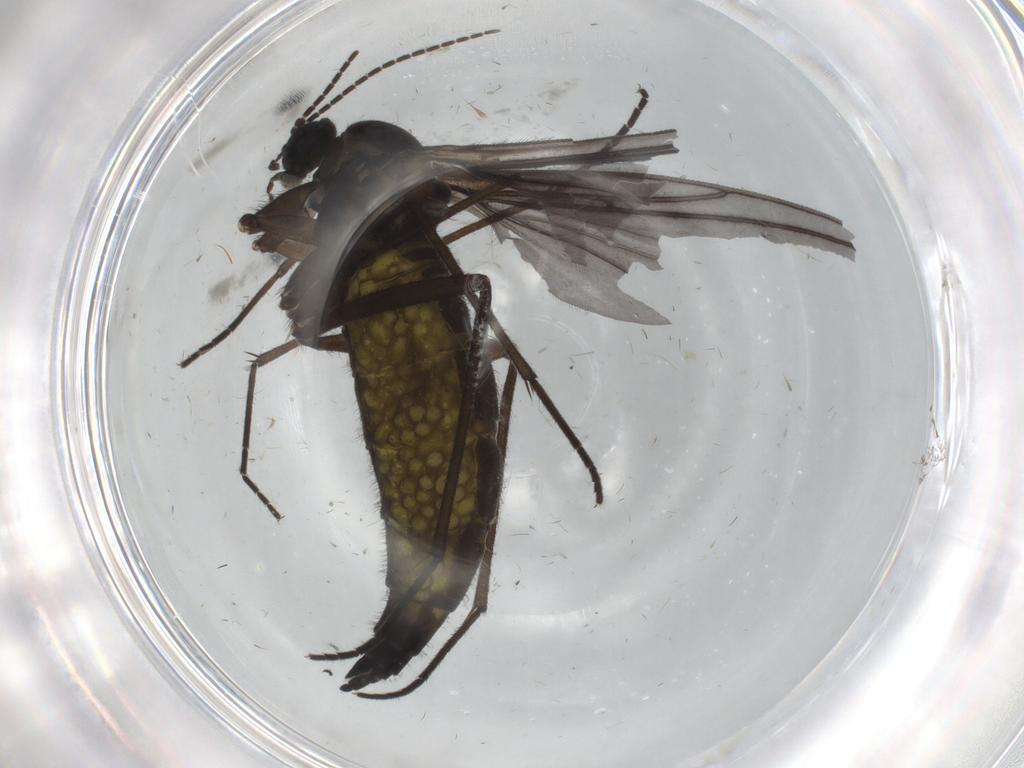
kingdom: Animalia
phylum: Arthropoda
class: Insecta
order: Diptera
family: Sciaridae
